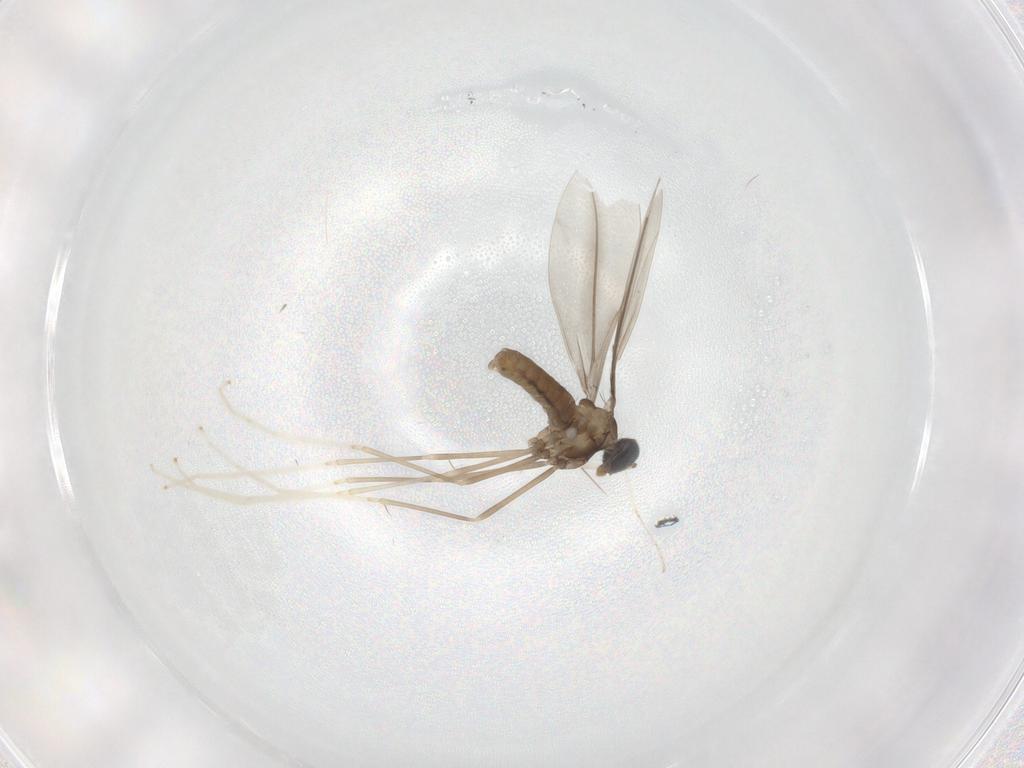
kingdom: Animalia
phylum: Arthropoda
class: Insecta
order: Diptera
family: Cecidomyiidae
